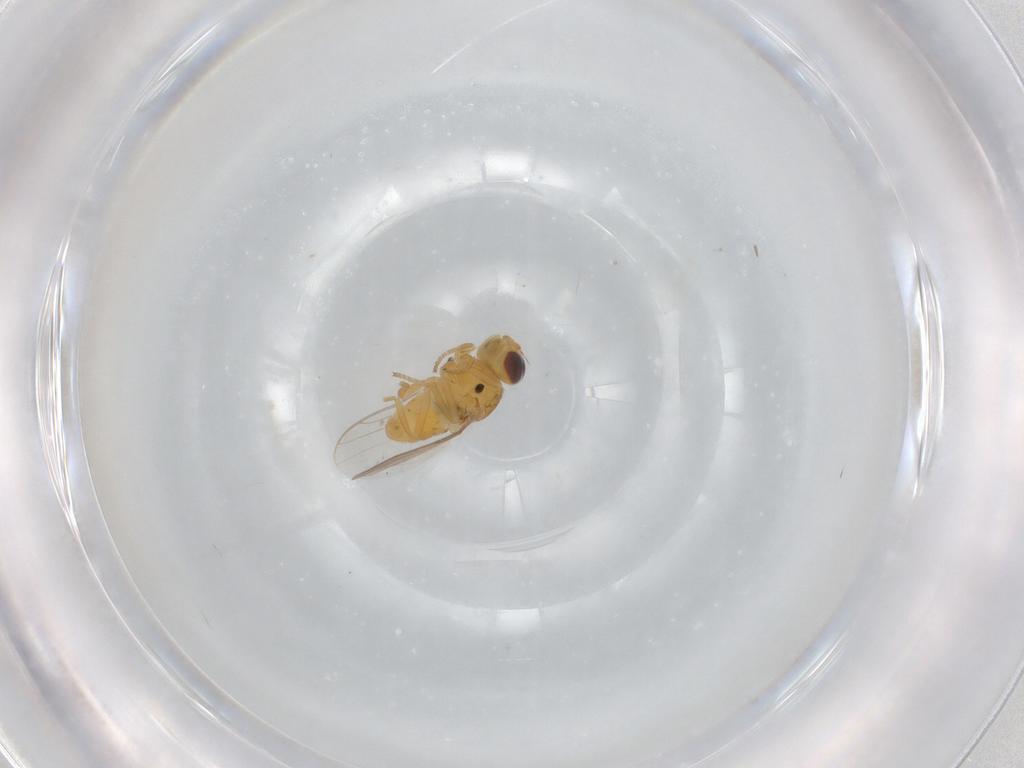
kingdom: Animalia
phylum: Arthropoda
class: Insecta
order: Diptera
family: Chloropidae
